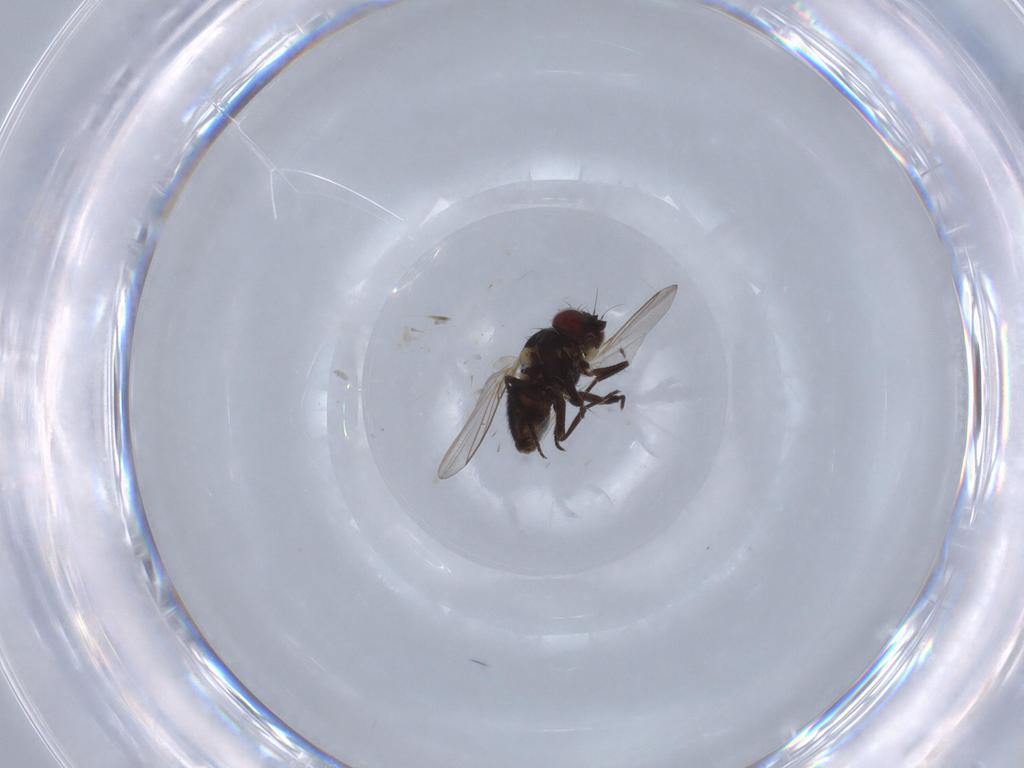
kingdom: Animalia
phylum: Arthropoda
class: Insecta
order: Diptera
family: Agromyzidae
